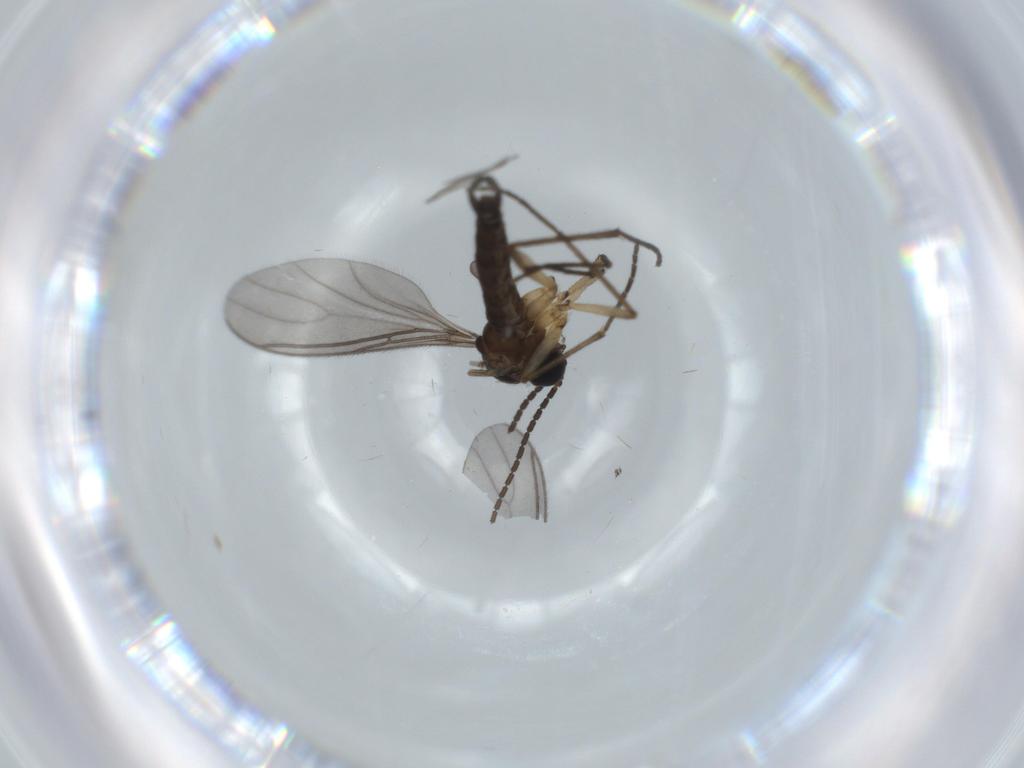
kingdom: Animalia
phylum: Arthropoda
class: Insecta
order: Diptera
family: Sciaridae
